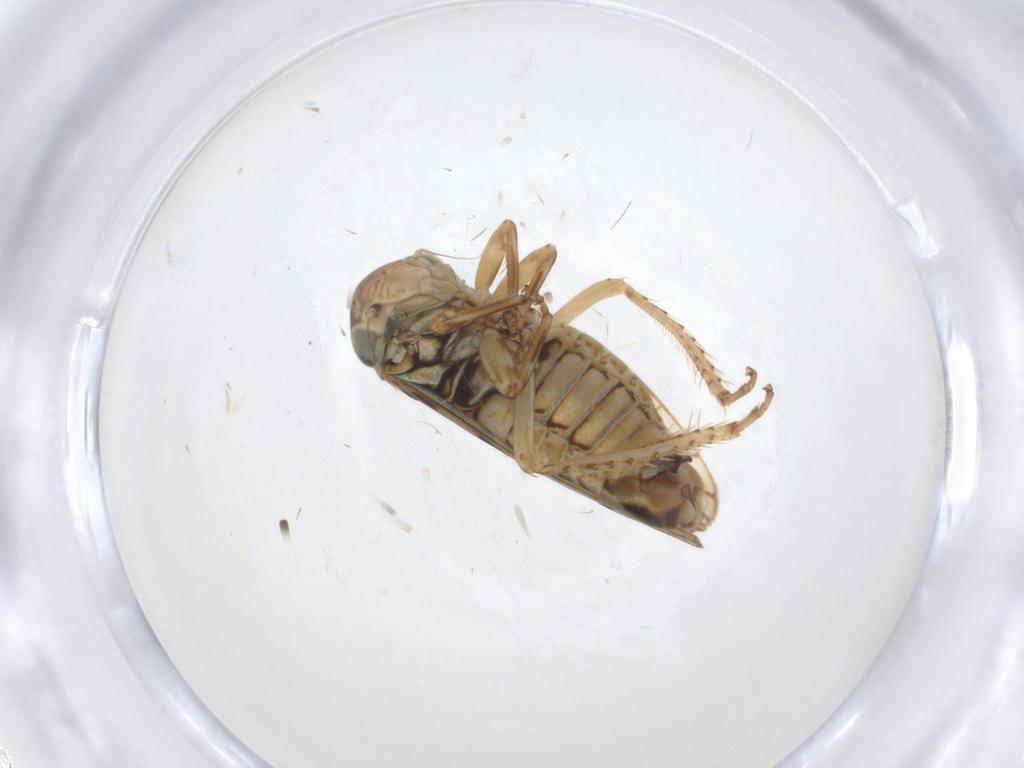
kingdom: Animalia
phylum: Arthropoda
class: Insecta
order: Hemiptera
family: Cicadellidae
